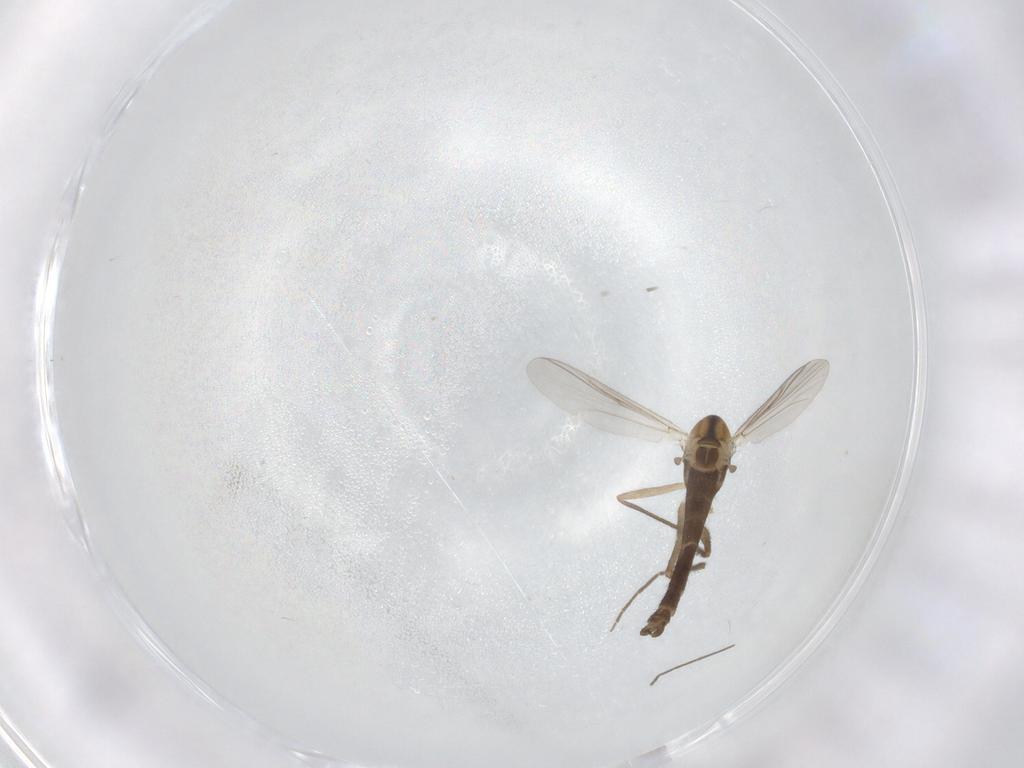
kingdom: Animalia
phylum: Arthropoda
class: Insecta
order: Diptera
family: Chironomidae
